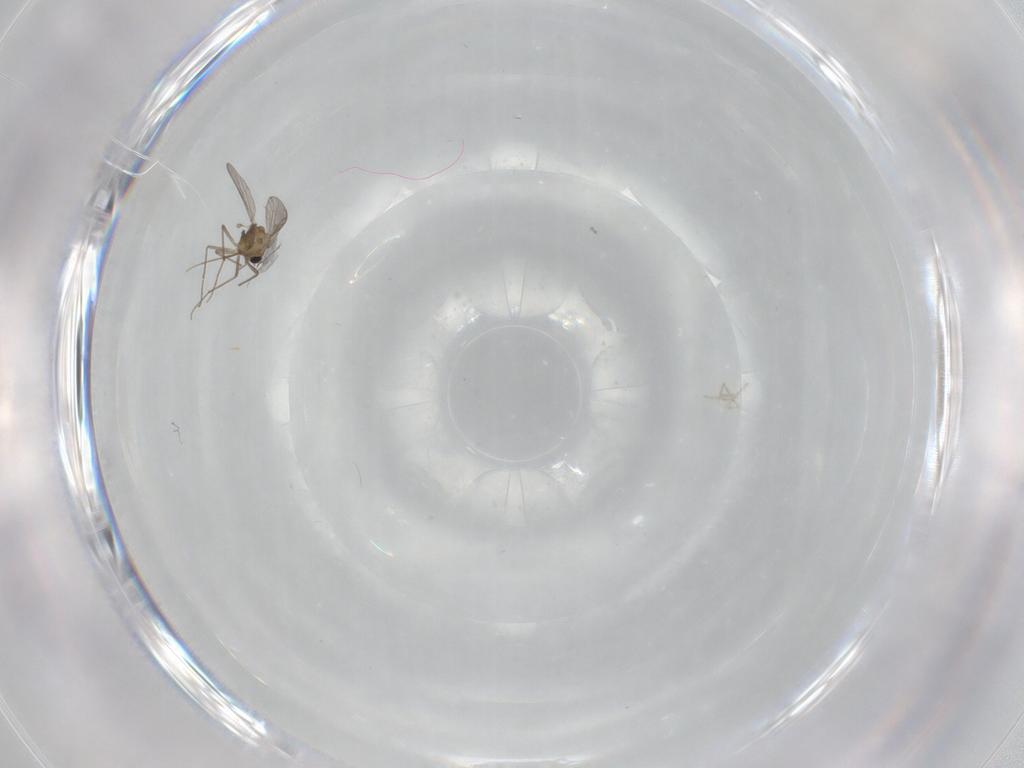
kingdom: Animalia
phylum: Arthropoda
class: Insecta
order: Diptera
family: Chironomidae
